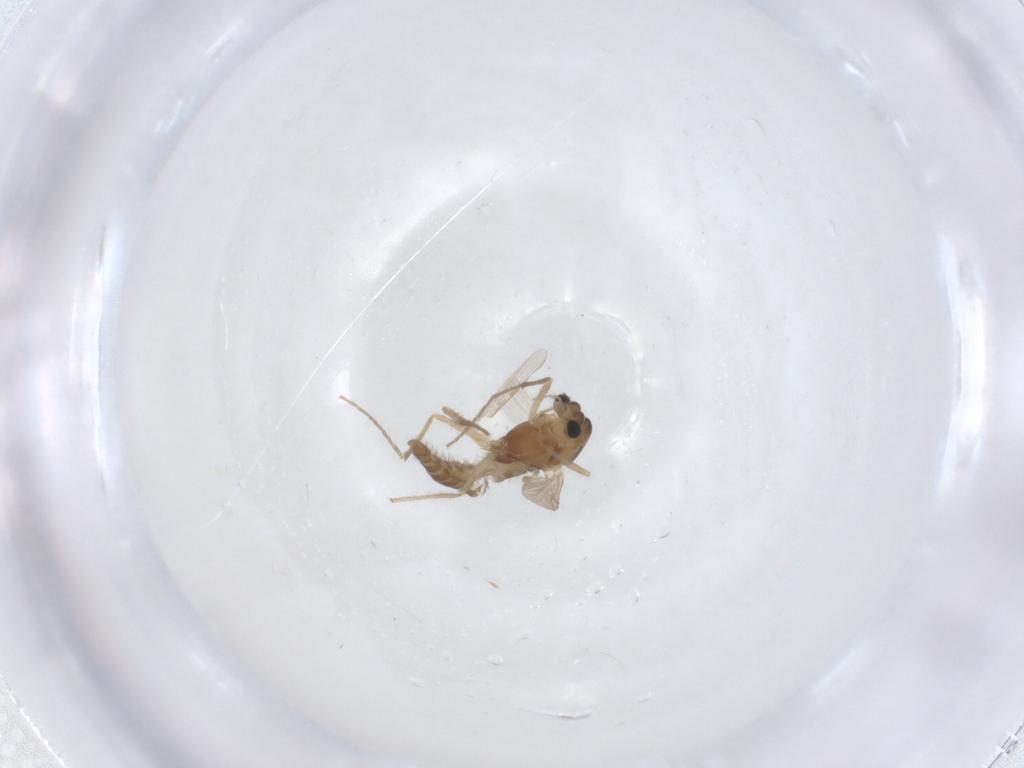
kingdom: Animalia
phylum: Arthropoda
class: Insecta
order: Diptera
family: Chironomidae
